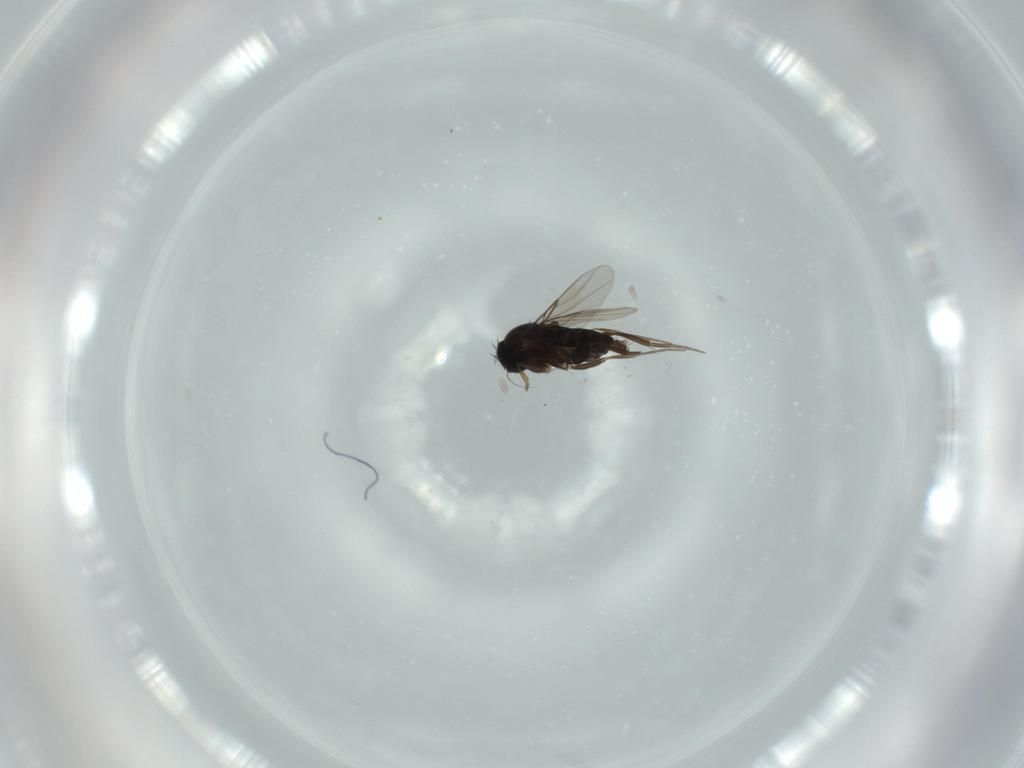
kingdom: Animalia
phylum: Arthropoda
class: Insecta
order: Diptera
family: Phoridae
